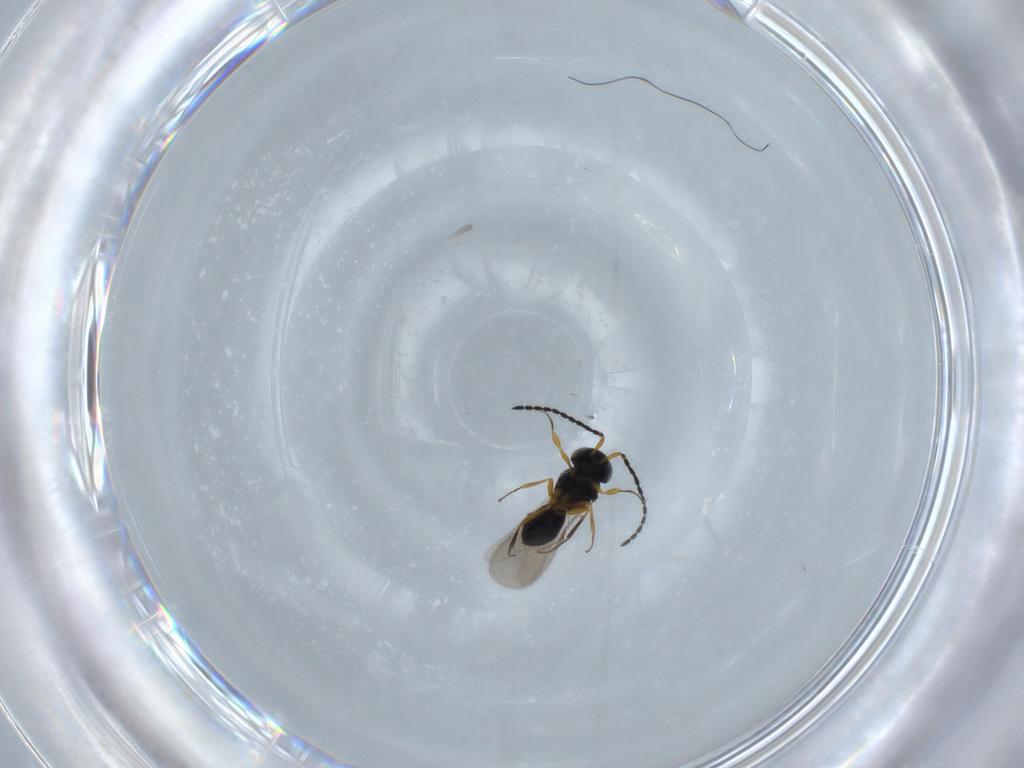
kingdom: Animalia
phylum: Arthropoda
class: Insecta
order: Hymenoptera
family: Scelionidae
